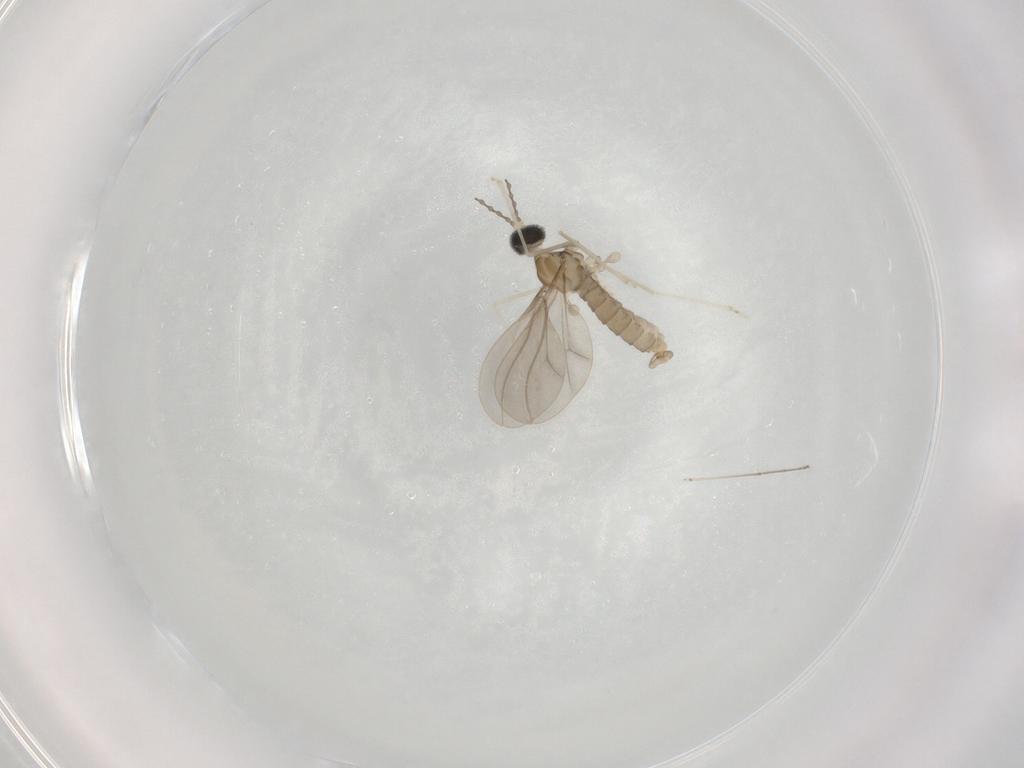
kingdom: Animalia
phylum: Arthropoda
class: Insecta
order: Diptera
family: Cecidomyiidae
